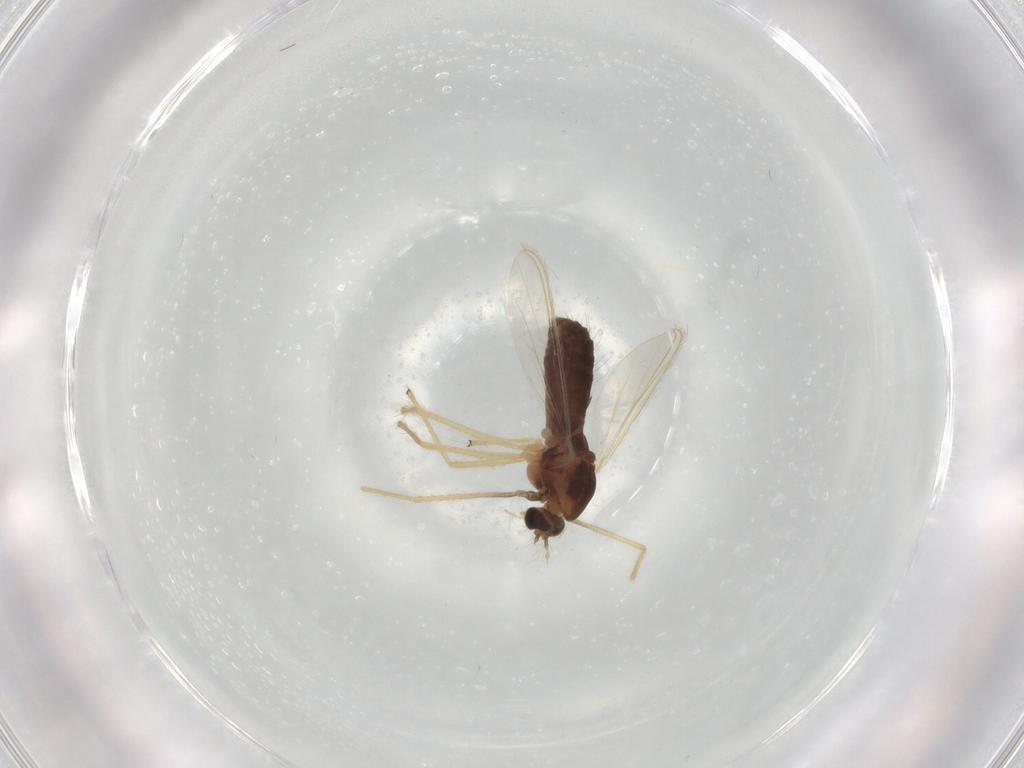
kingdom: Animalia
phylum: Arthropoda
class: Insecta
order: Diptera
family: Chironomidae
